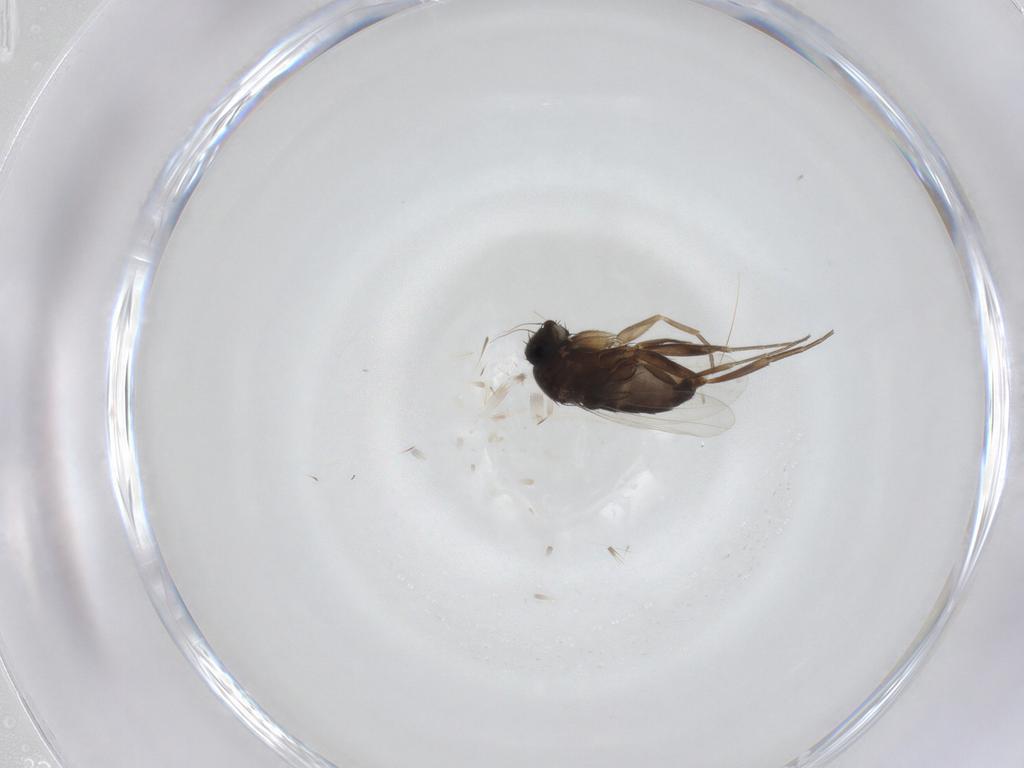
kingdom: Animalia
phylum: Arthropoda
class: Insecta
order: Diptera
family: Phoridae
